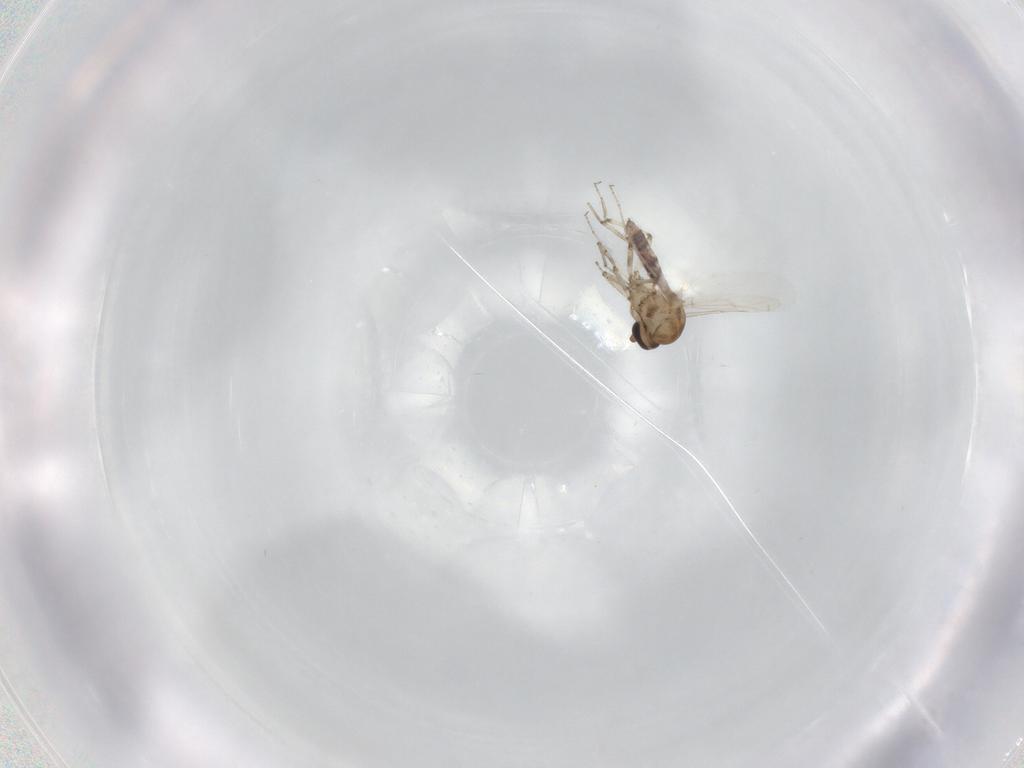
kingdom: Animalia
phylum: Arthropoda
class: Insecta
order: Diptera
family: Ceratopogonidae
